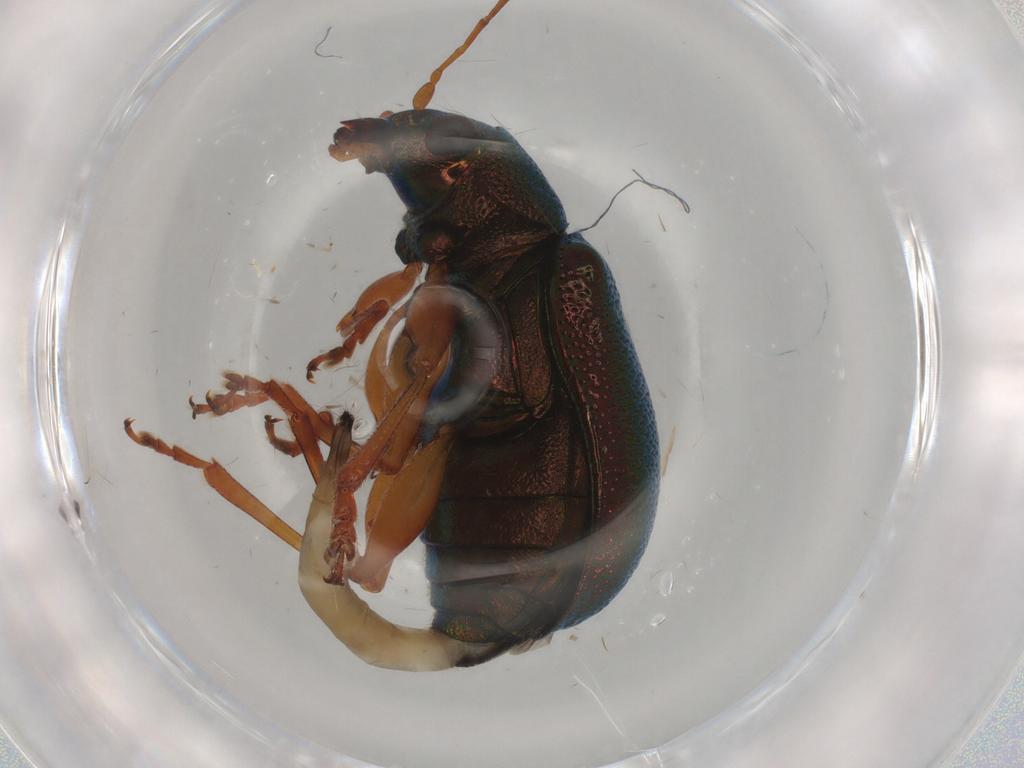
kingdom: Animalia
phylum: Arthropoda
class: Insecta
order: Coleoptera
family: Chrysomelidae
